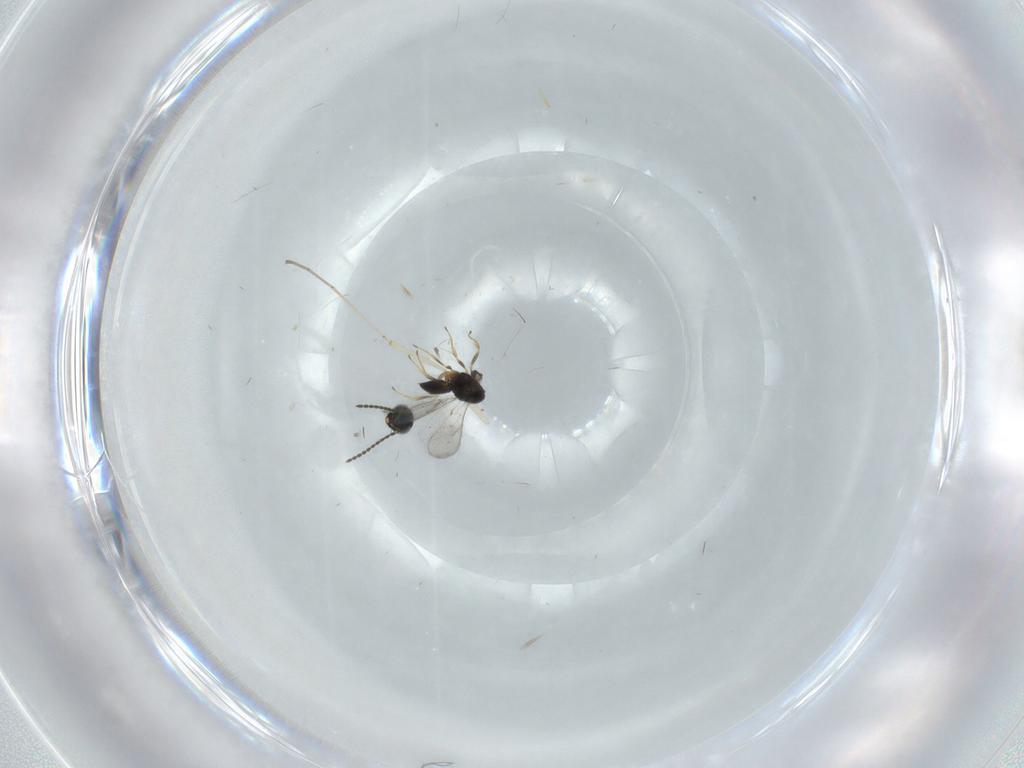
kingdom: Animalia
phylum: Arthropoda
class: Insecta
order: Hymenoptera
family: Scelionidae
